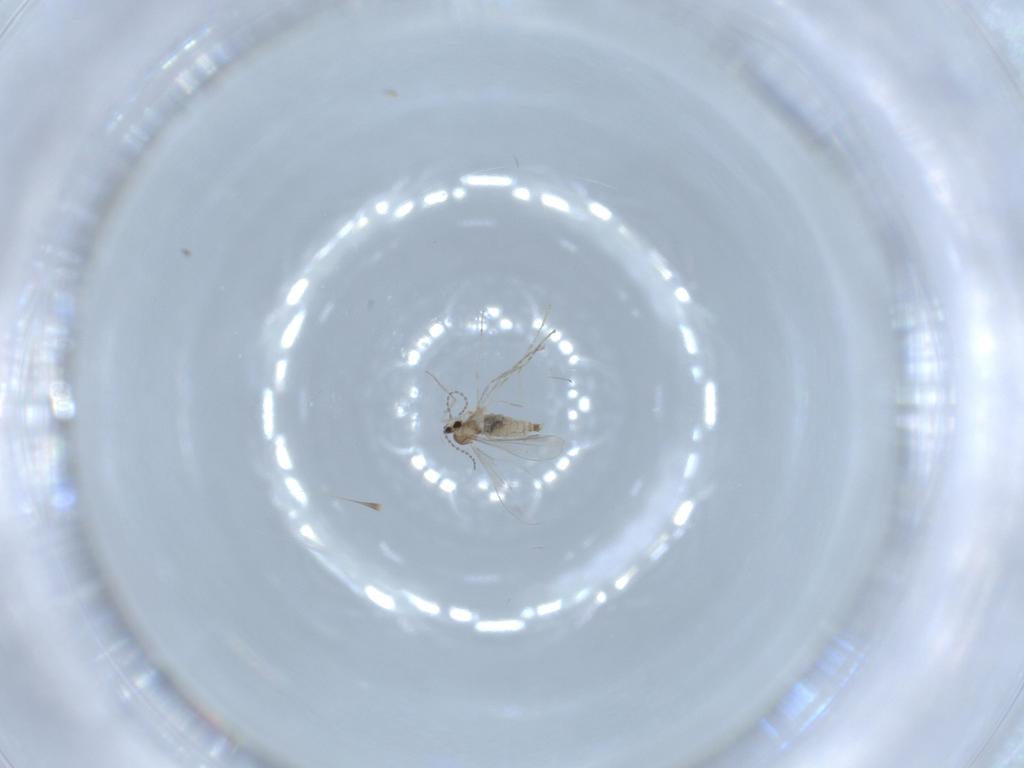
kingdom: Animalia
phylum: Arthropoda
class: Insecta
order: Diptera
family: Cecidomyiidae
